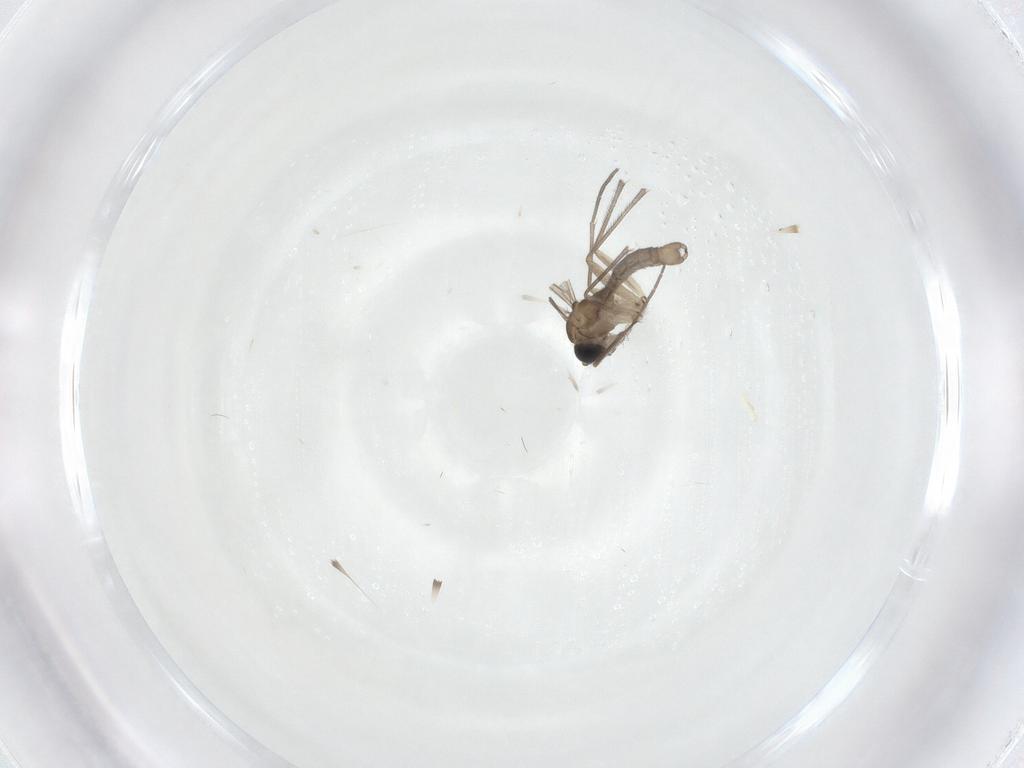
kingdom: Animalia
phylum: Arthropoda
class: Insecta
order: Diptera
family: Sciaridae
